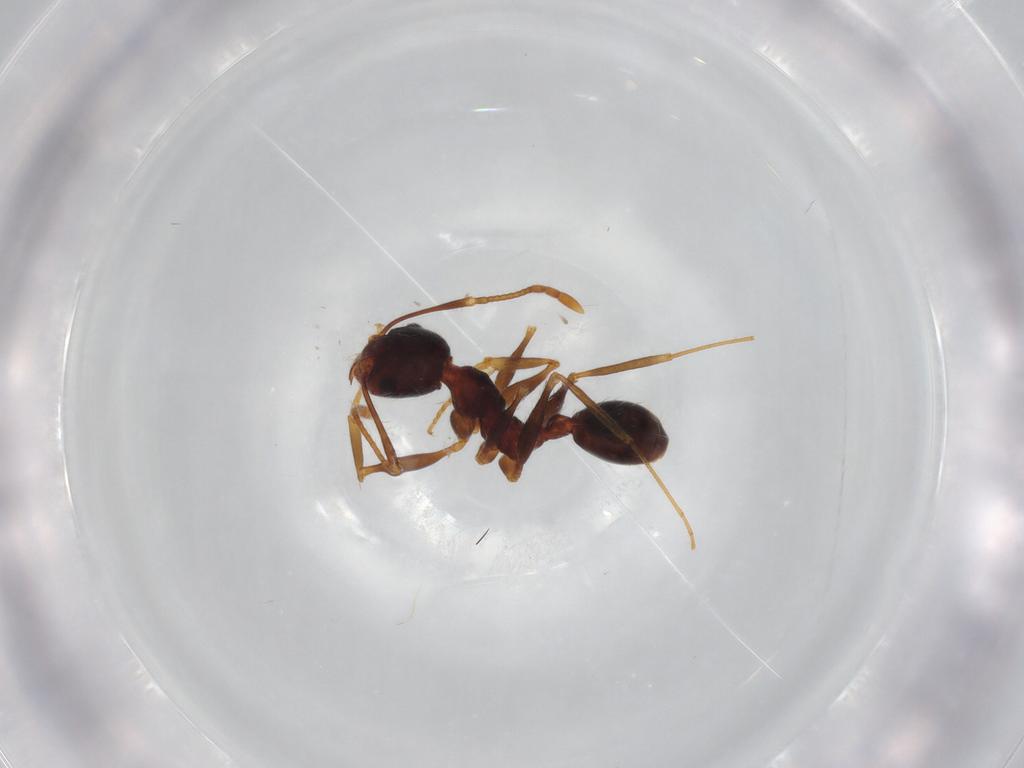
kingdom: Animalia
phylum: Arthropoda
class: Insecta
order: Hymenoptera
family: Formicidae
